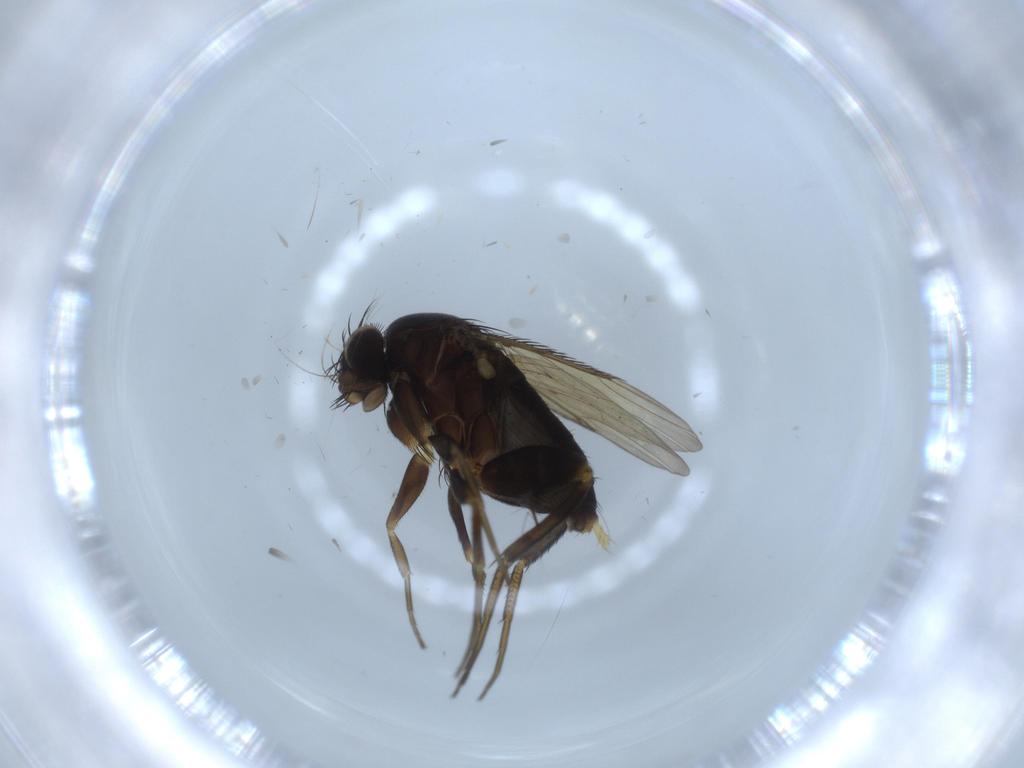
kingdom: Animalia
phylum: Arthropoda
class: Insecta
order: Diptera
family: Phoridae
